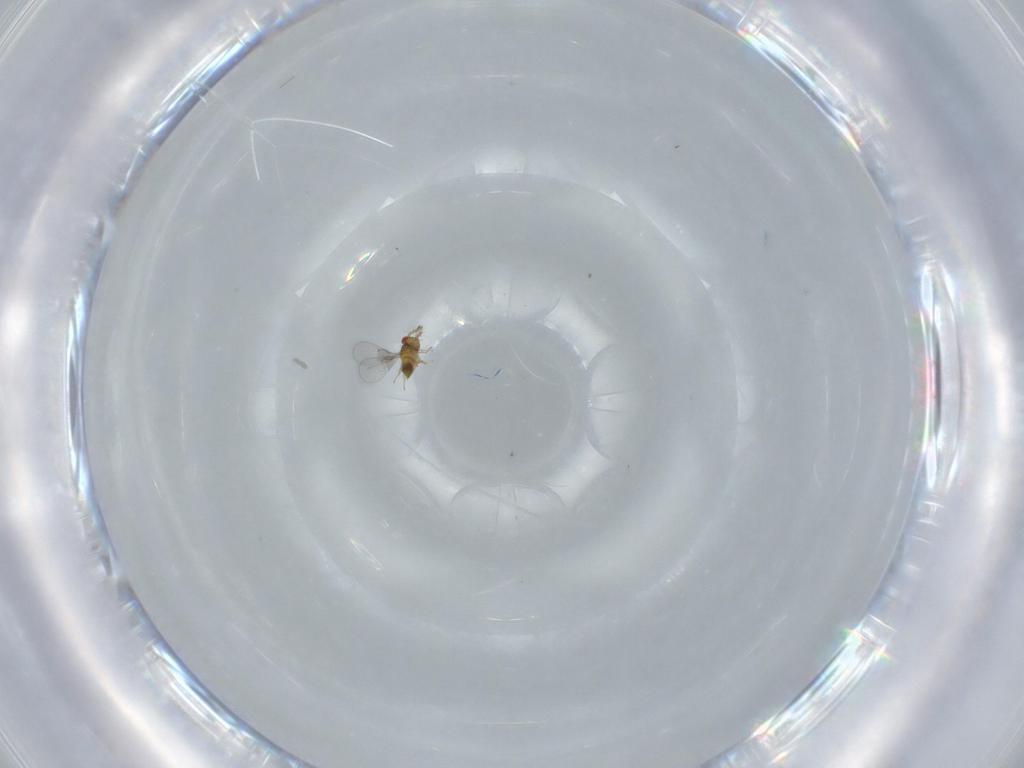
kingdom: Animalia
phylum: Arthropoda
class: Insecta
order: Hymenoptera
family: Trichogrammatidae
